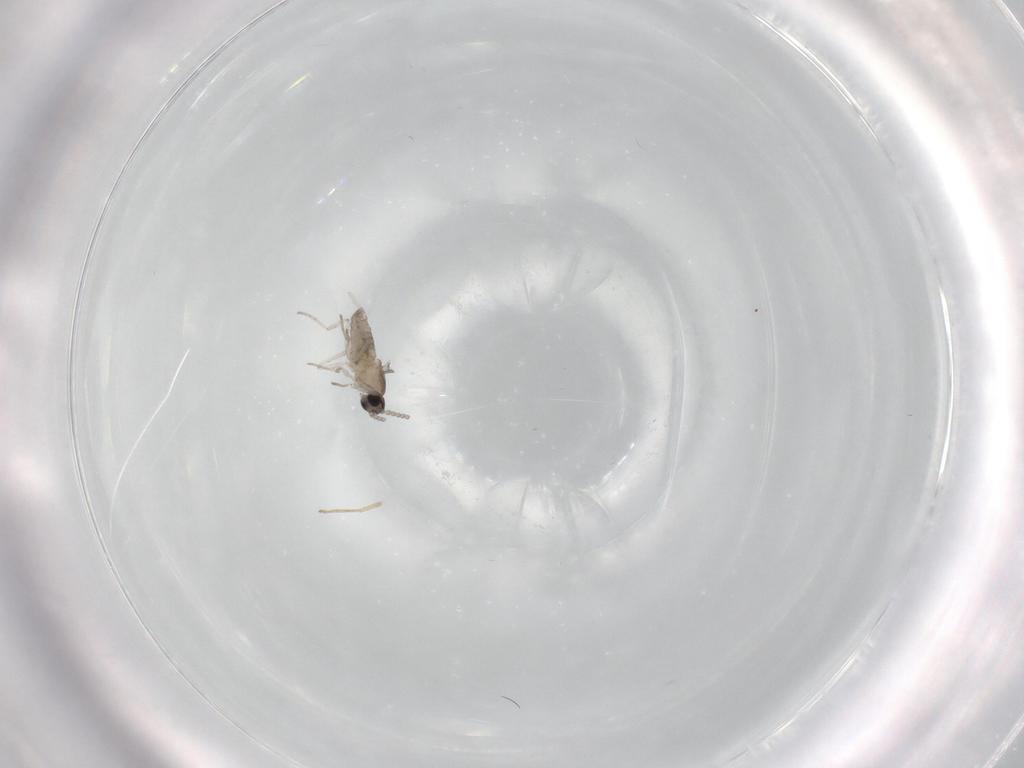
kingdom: Animalia
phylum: Arthropoda
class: Insecta
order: Diptera
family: Cecidomyiidae
